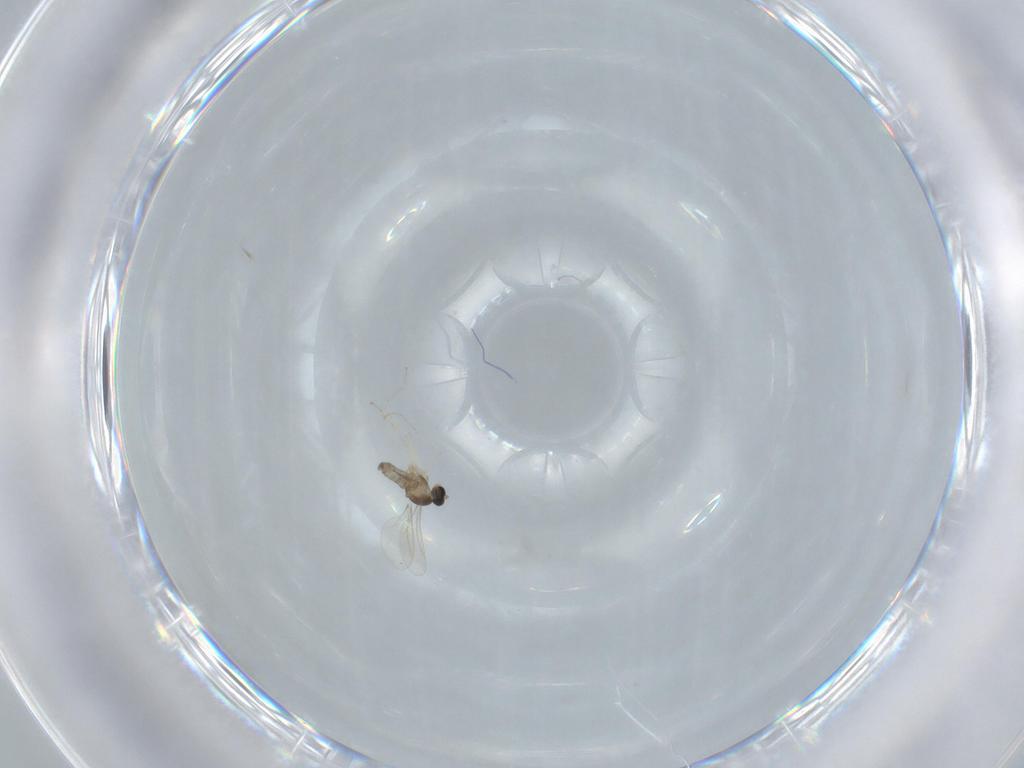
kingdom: Animalia
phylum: Arthropoda
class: Insecta
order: Diptera
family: Cecidomyiidae
